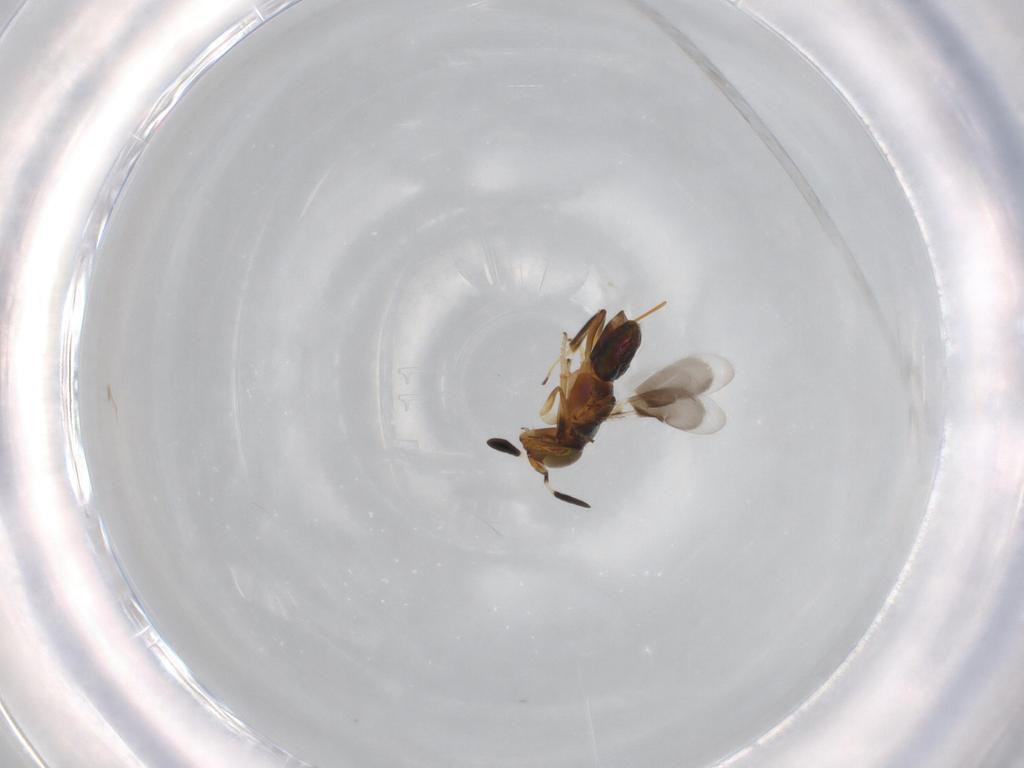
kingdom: Animalia
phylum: Arthropoda
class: Insecta
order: Hymenoptera
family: Encyrtidae
